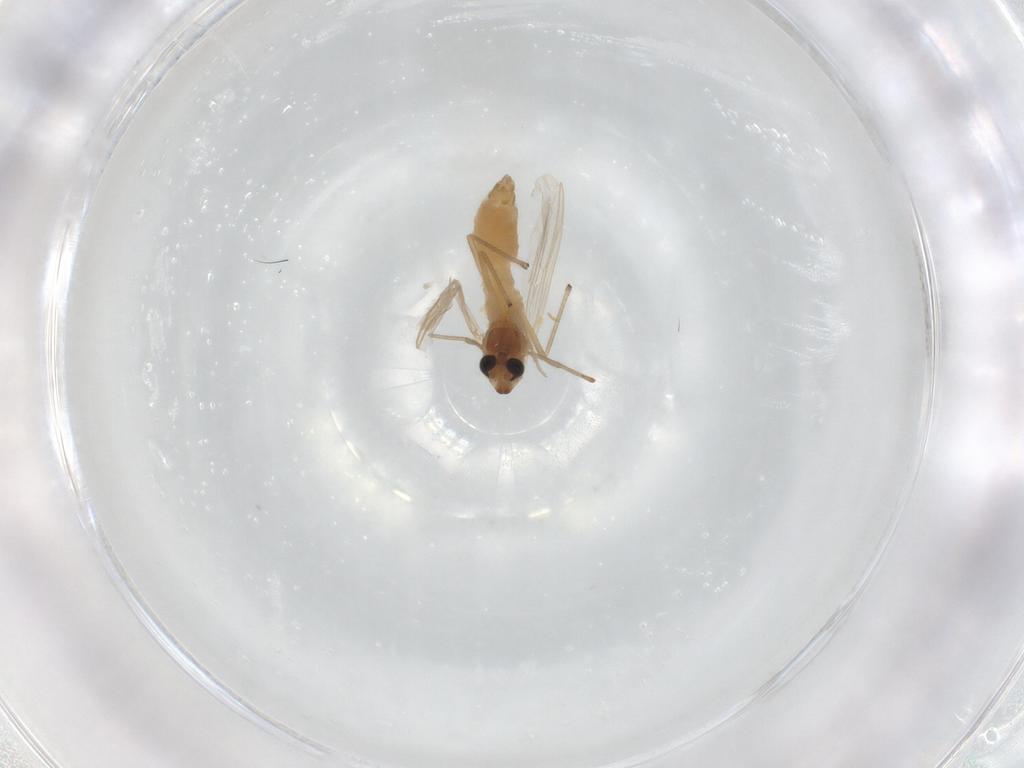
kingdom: Animalia
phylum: Arthropoda
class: Insecta
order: Diptera
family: Chironomidae
